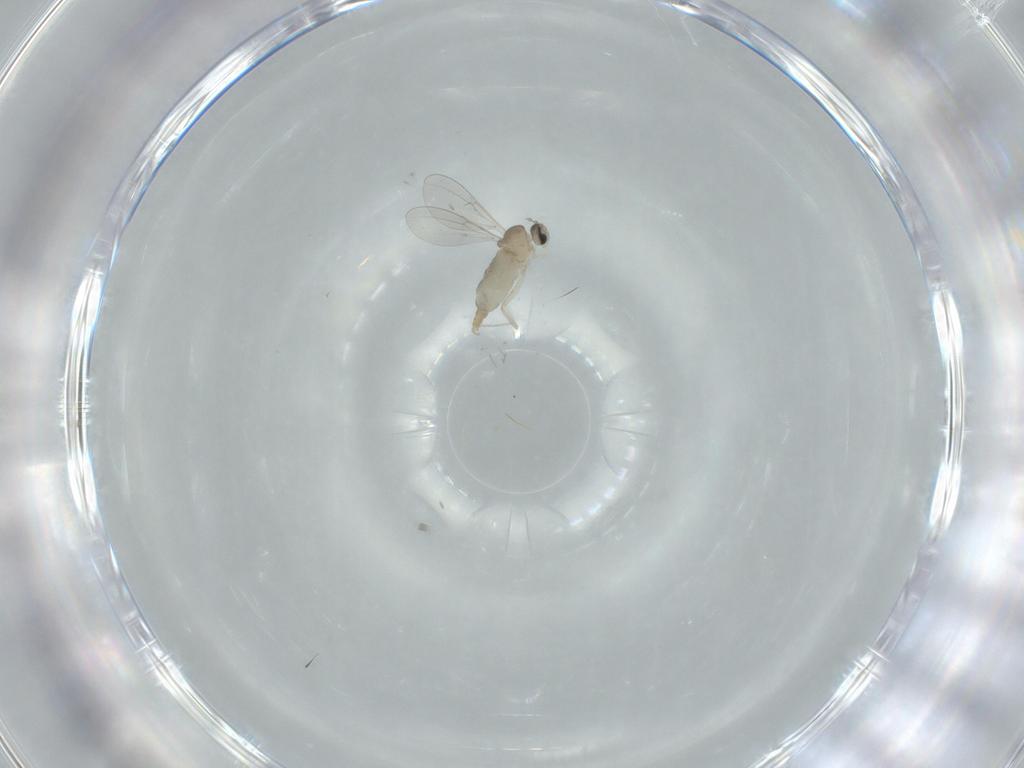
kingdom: Animalia
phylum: Arthropoda
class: Insecta
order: Diptera
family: Cecidomyiidae
